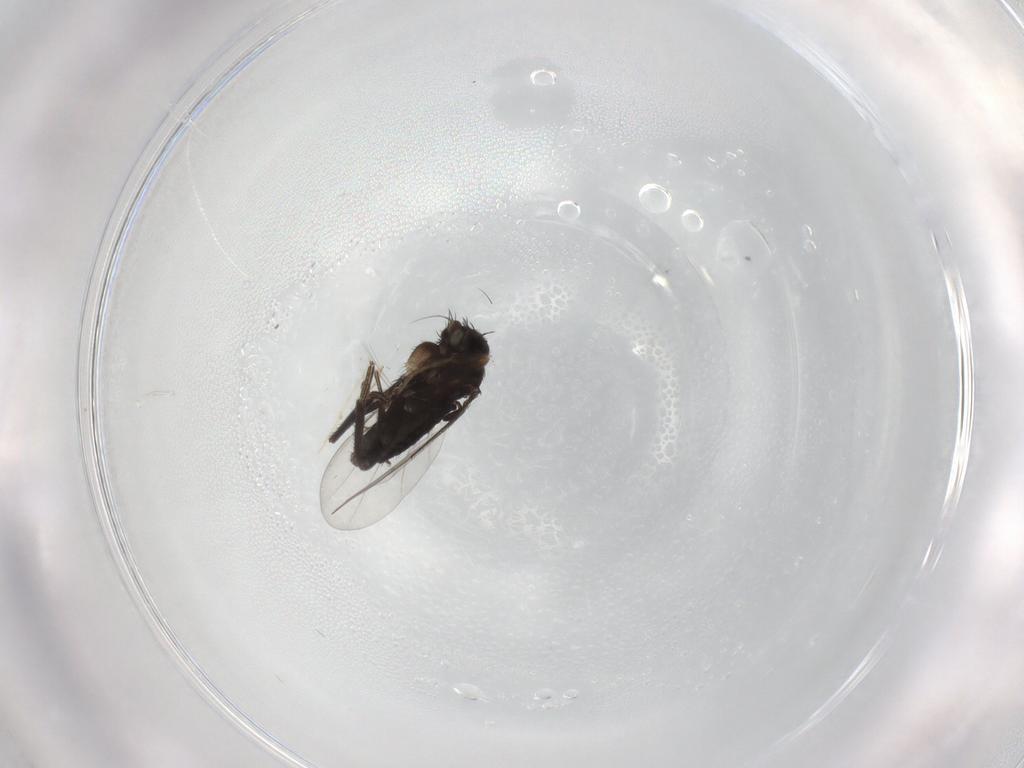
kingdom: Animalia
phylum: Arthropoda
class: Insecta
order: Diptera
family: Phoridae
